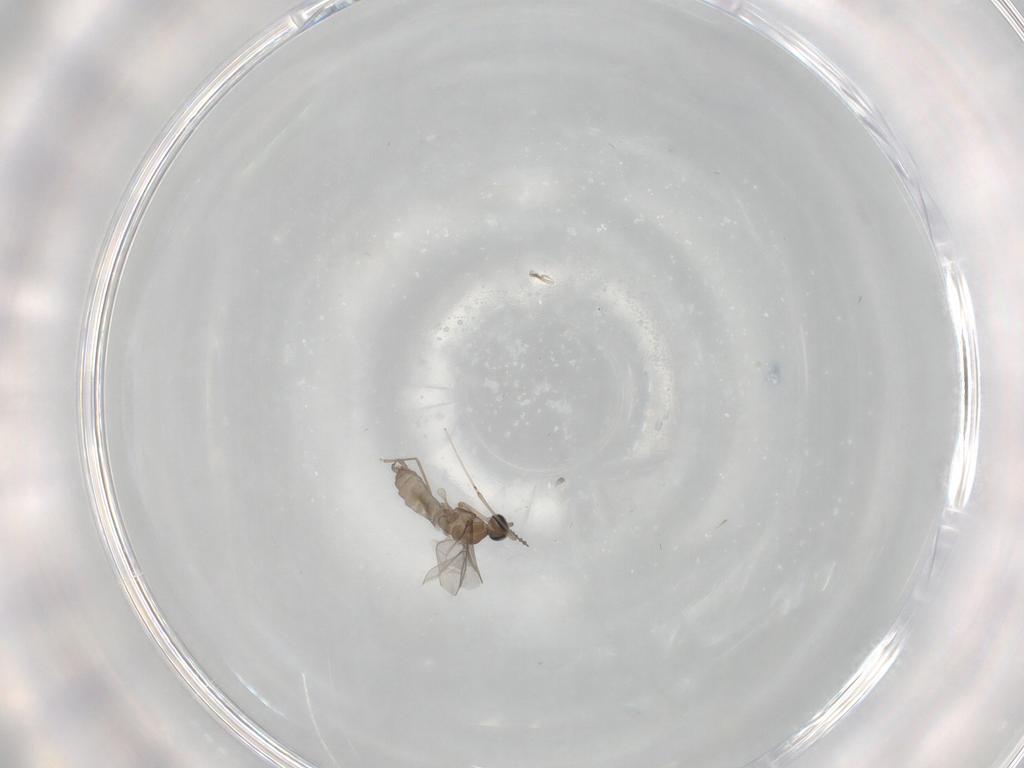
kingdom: Animalia
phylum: Arthropoda
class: Insecta
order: Diptera
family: Cecidomyiidae
